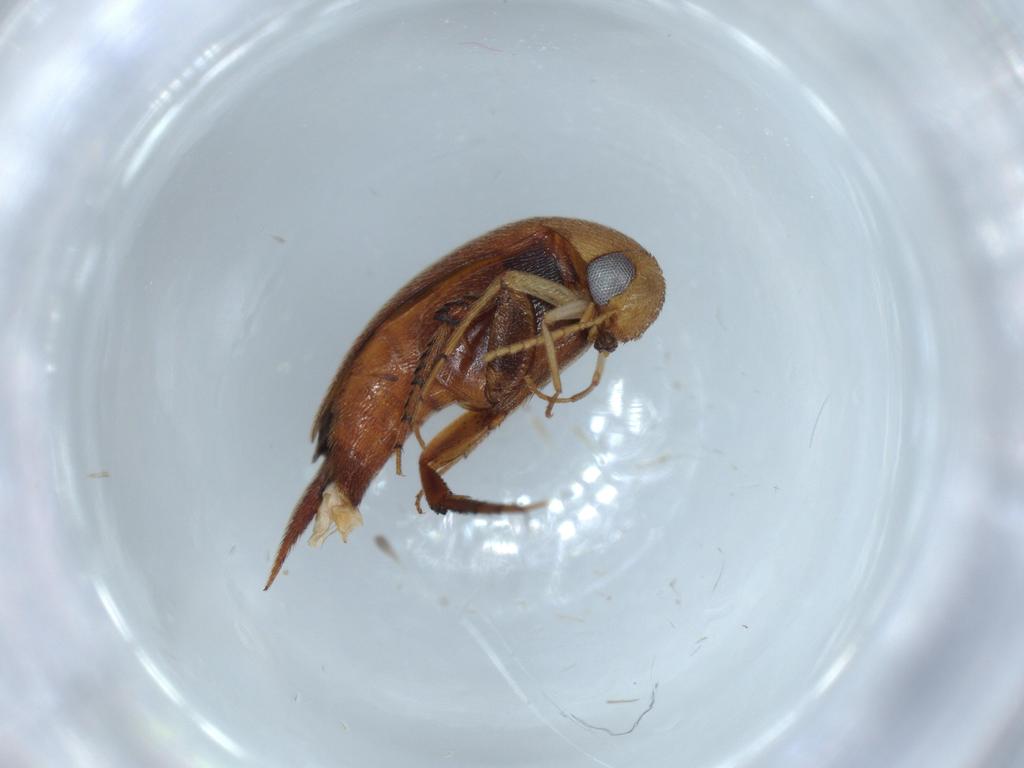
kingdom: Animalia
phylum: Arthropoda
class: Insecta
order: Coleoptera
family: Mordellidae
